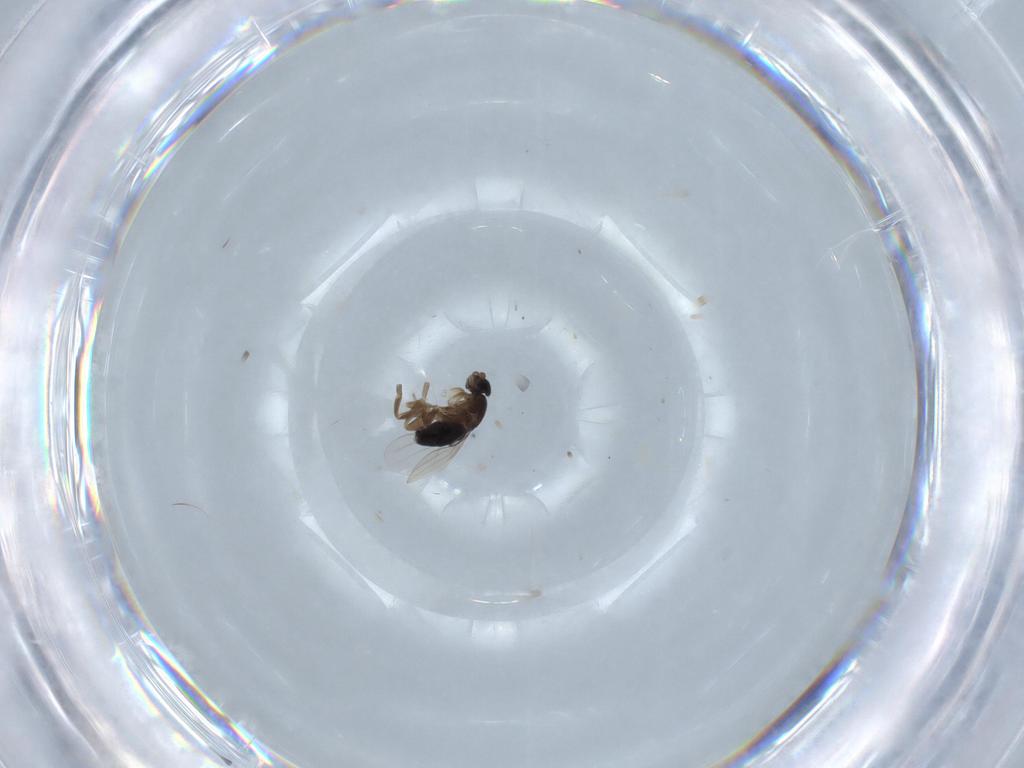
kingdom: Animalia
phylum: Arthropoda
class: Insecta
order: Diptera
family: Phoridae
